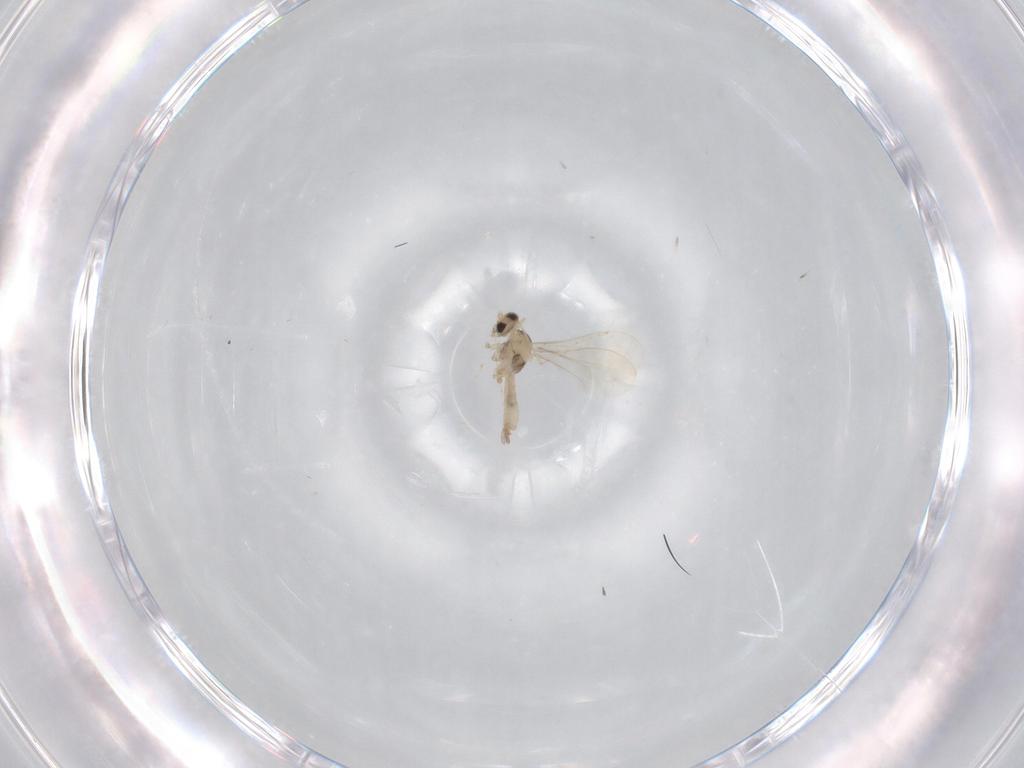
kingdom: Animalia
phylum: Arthropoda
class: Insecta
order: Diptera
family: Cecidomyiidae
